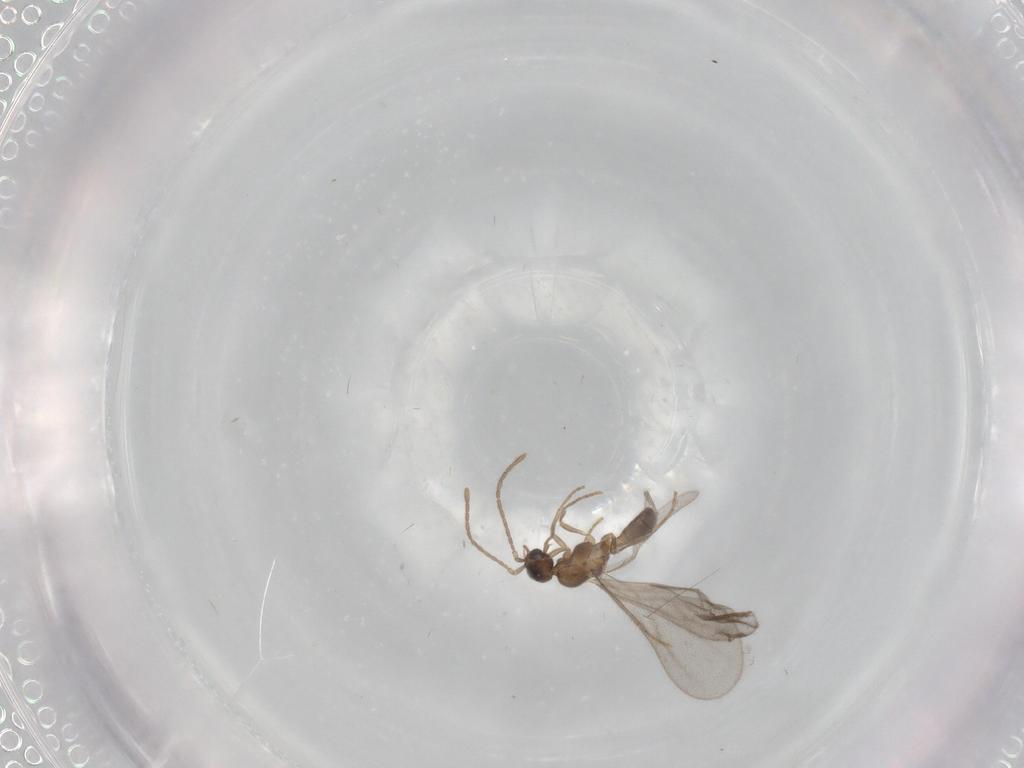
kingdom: Animalia
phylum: Arthropoda
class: Insecta
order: Hymenoptera
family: Formicidae
